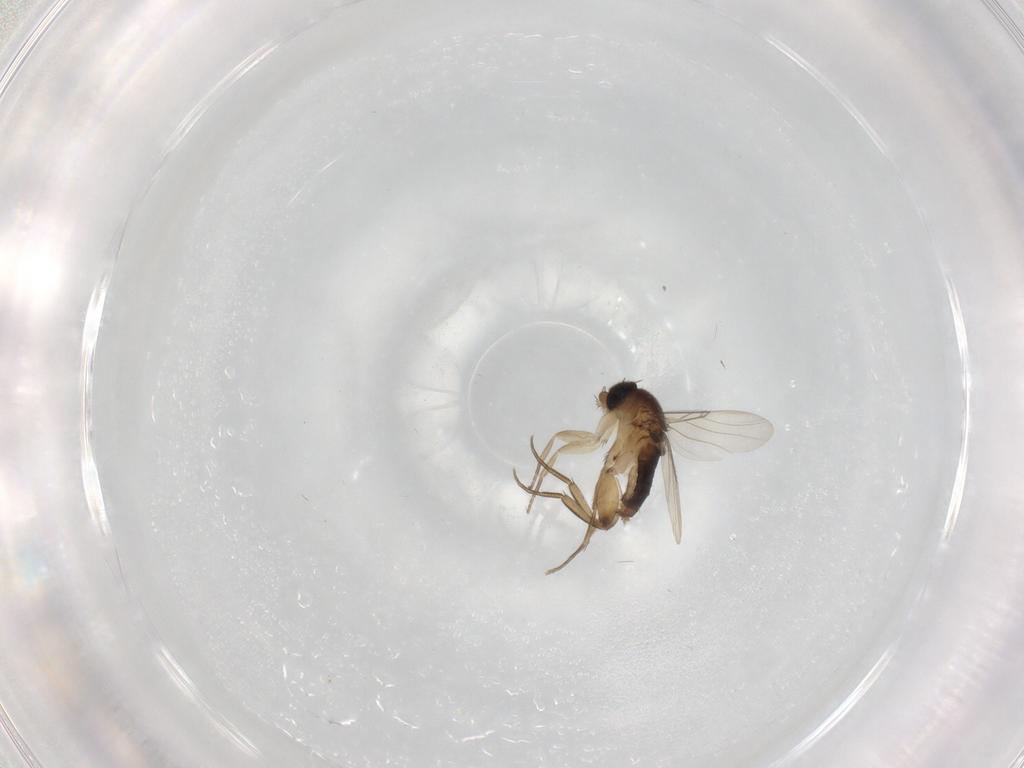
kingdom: Animalia
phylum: Arthropoda
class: Insecta
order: Diptera
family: Phoridae
